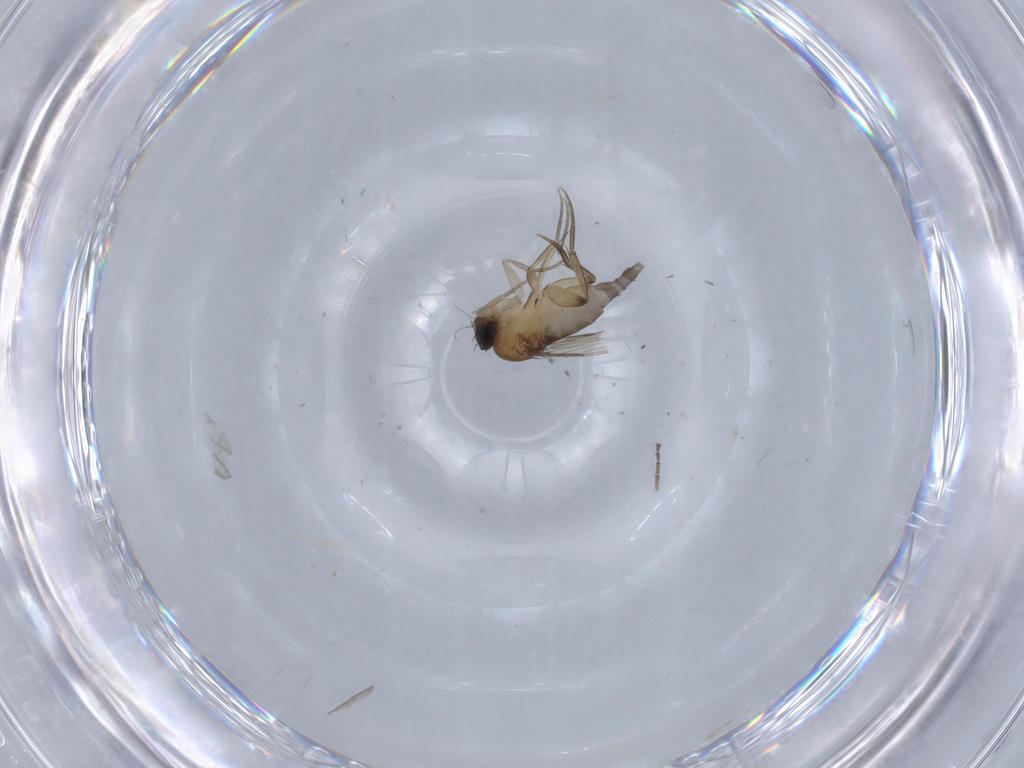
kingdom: Animalia
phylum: Arthropoda
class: Insecta
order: Diptera
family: Phoridae
